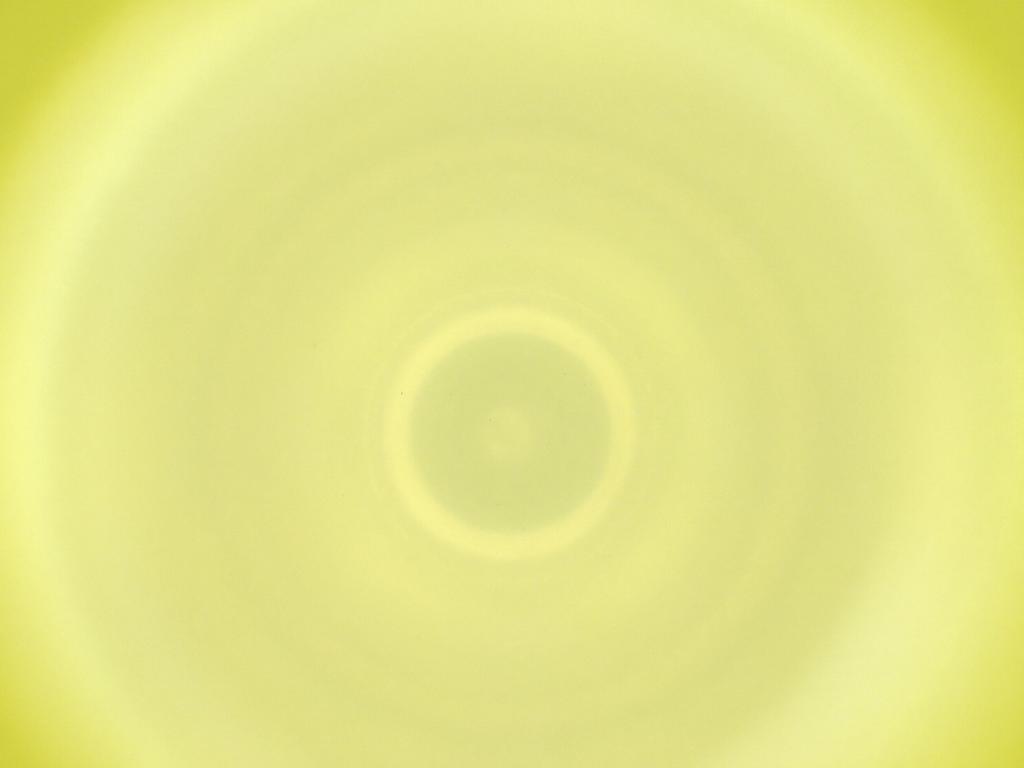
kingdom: Animalia
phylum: Arthropoda
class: Insecta
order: Diptera
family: Cecidomyiidae
